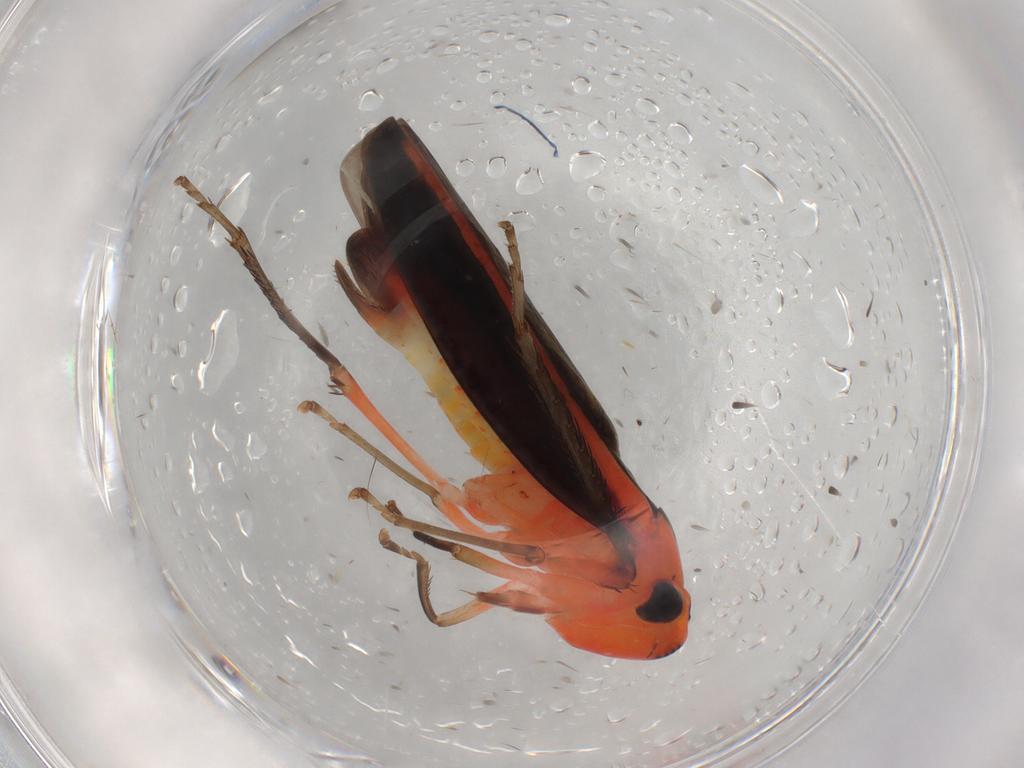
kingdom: Animalia
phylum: Arthropoda
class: Insecta
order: Hemiptera
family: Cicadellidae
